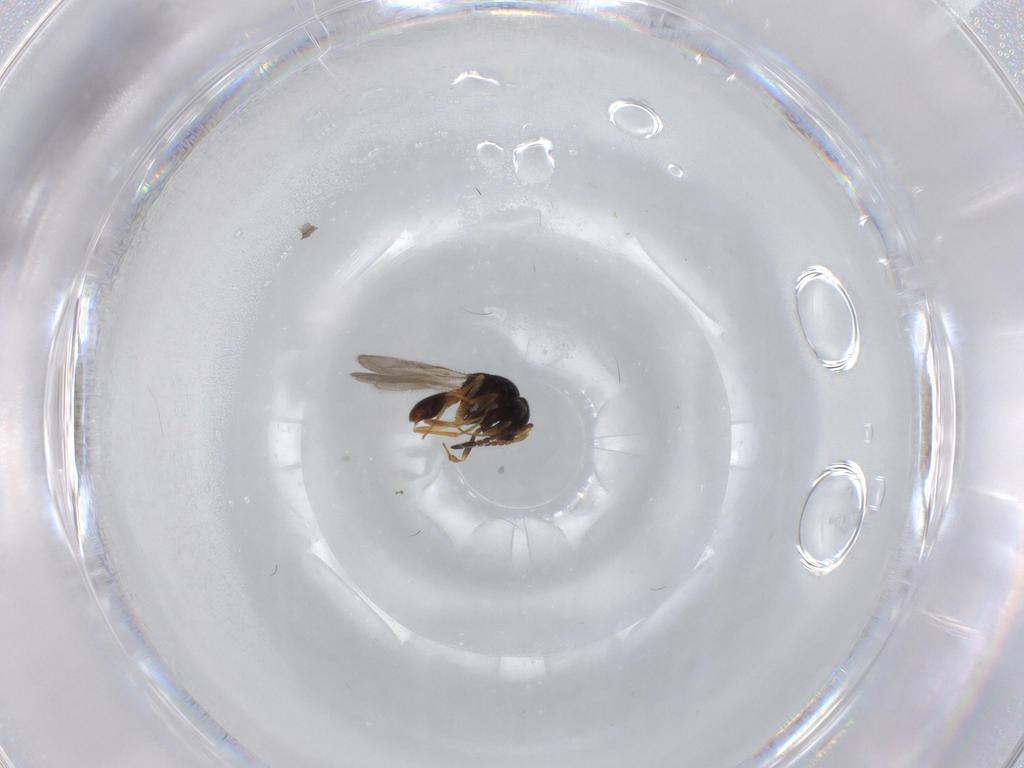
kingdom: Animalia
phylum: Arthropoda
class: Insecta
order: Hymenoptera
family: Scelionidae
